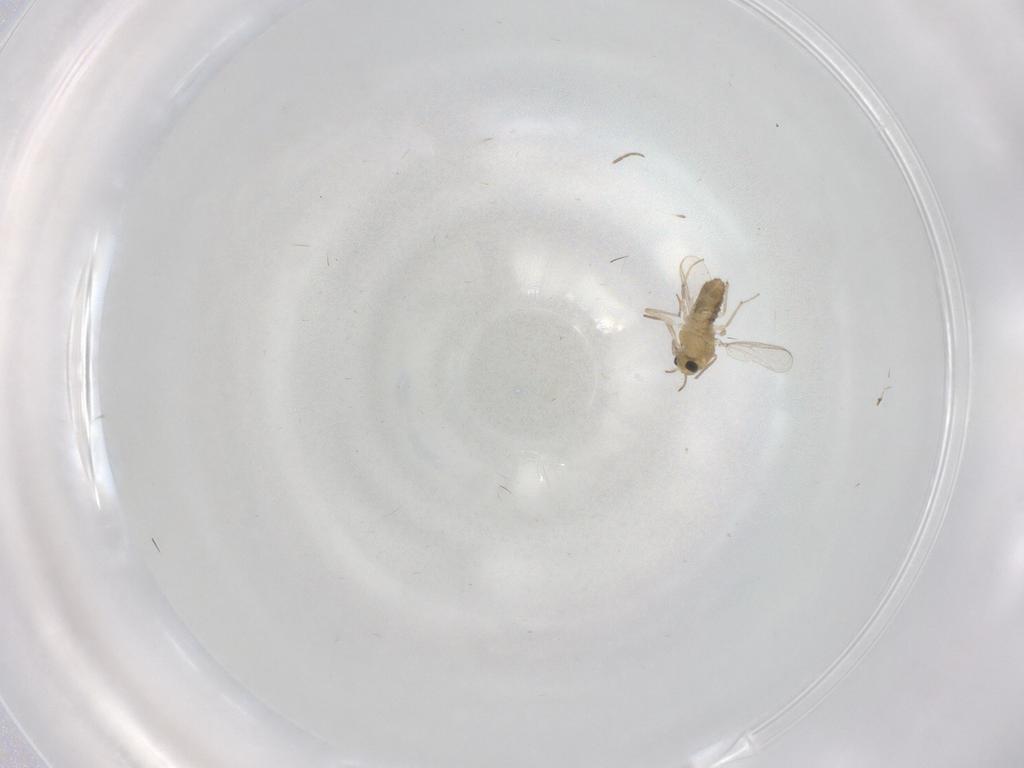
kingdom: Animalia
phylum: Arthropoda
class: Insecta
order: Diptera
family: Chironomidae
